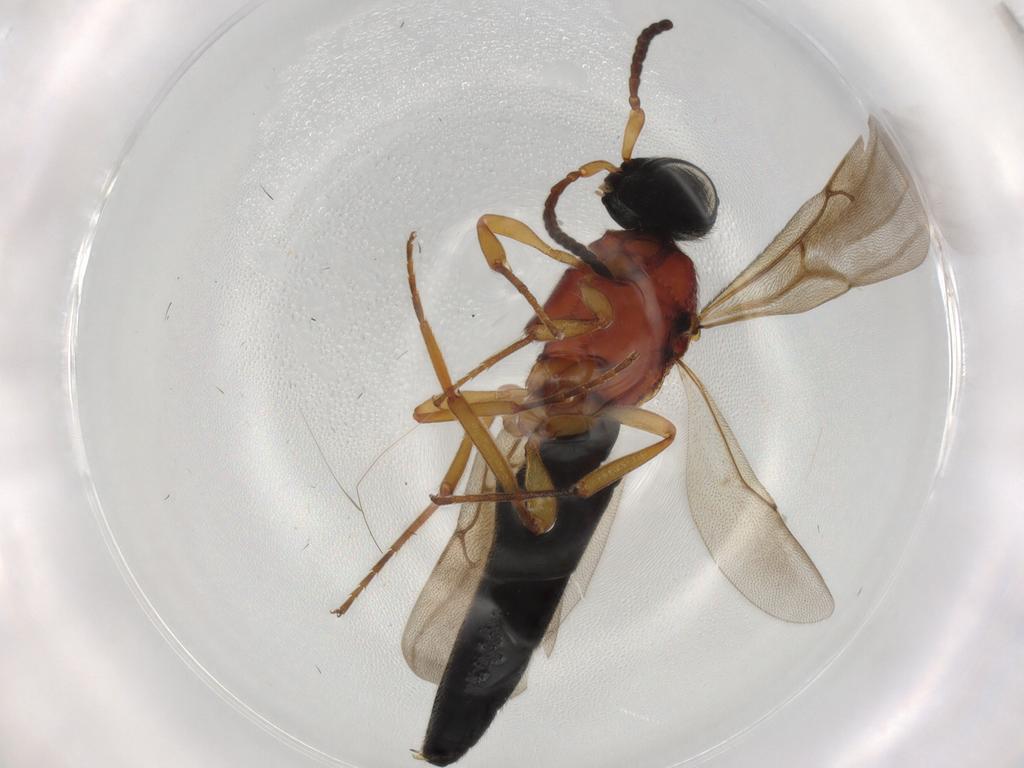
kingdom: Animalia
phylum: Arthropoda
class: Insecta
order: Hymenoptera
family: Scelionidae
